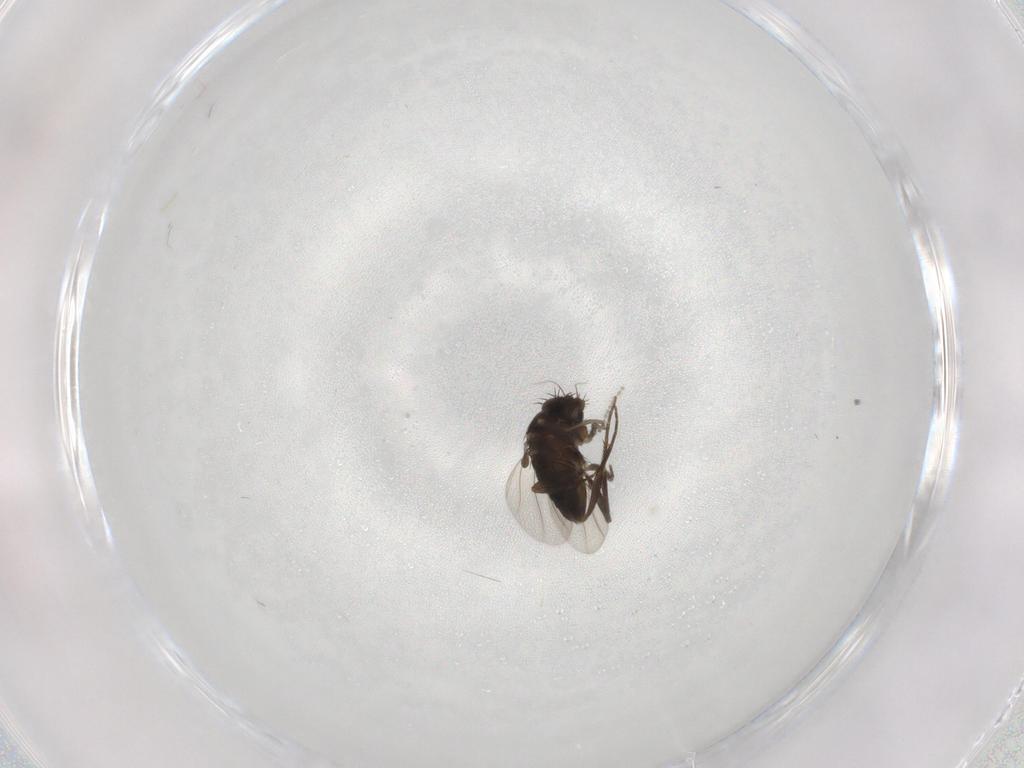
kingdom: Animalia
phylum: Arthropoda
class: Insecta
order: Diptera
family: Phoridae
